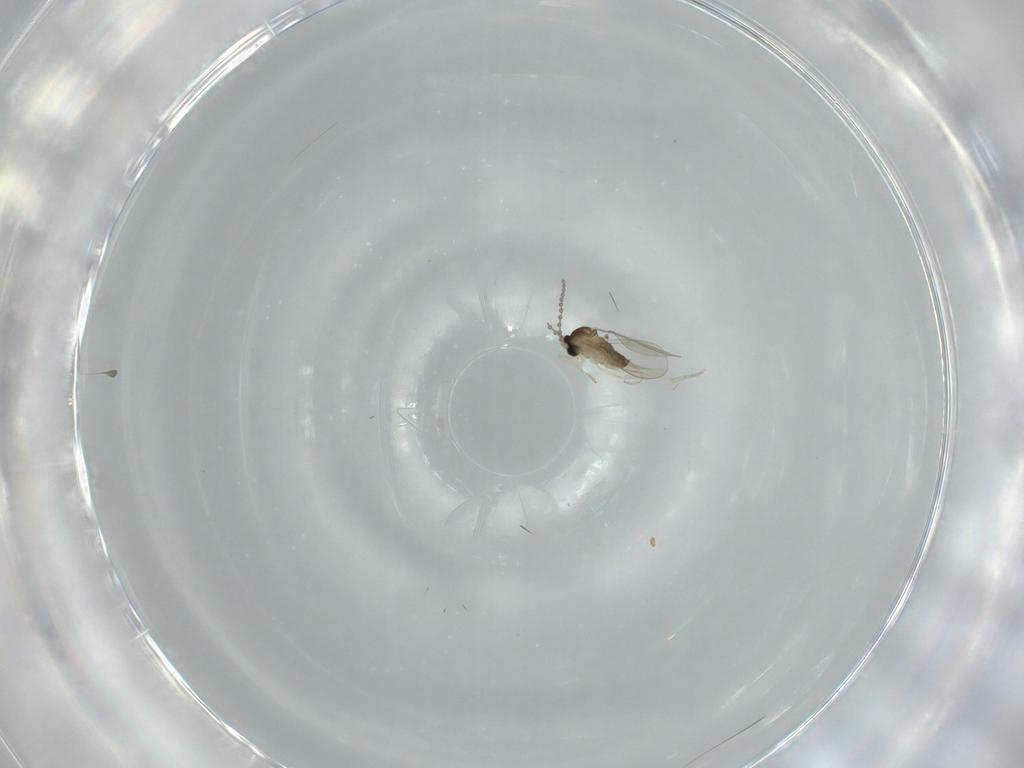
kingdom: Animalia
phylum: Arthropoda
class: Insecta
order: Diptera
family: Cecidomyiidae
